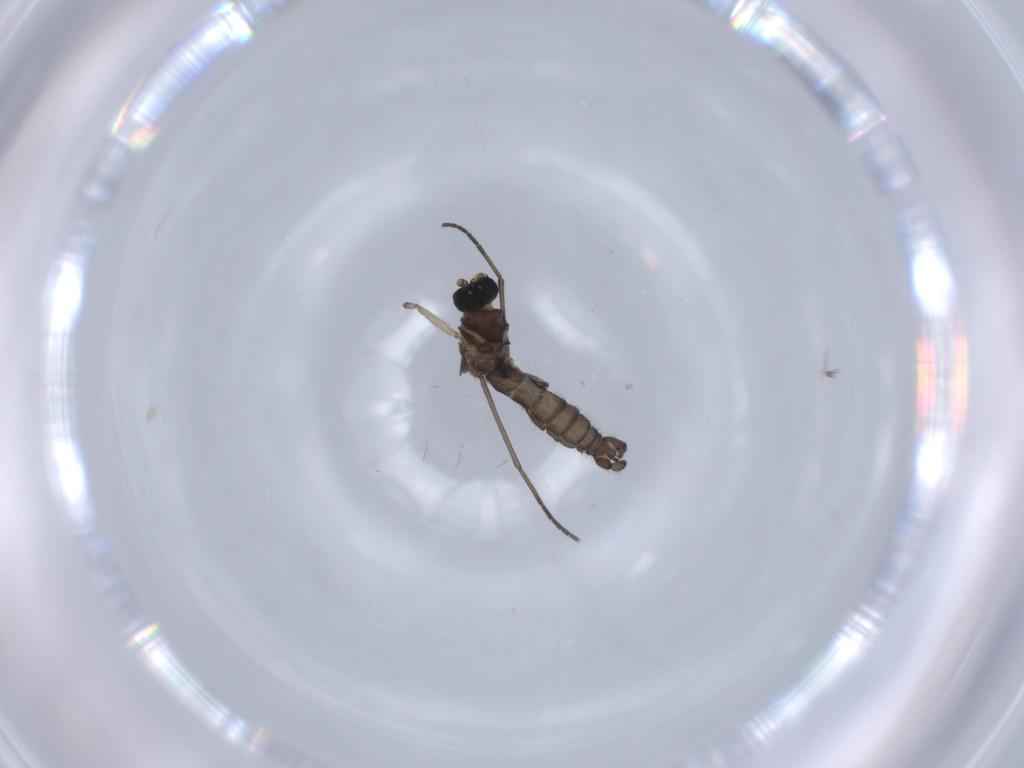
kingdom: Animalia
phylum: Arthropoda
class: Insecta
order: Diptera
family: Sciaridae
